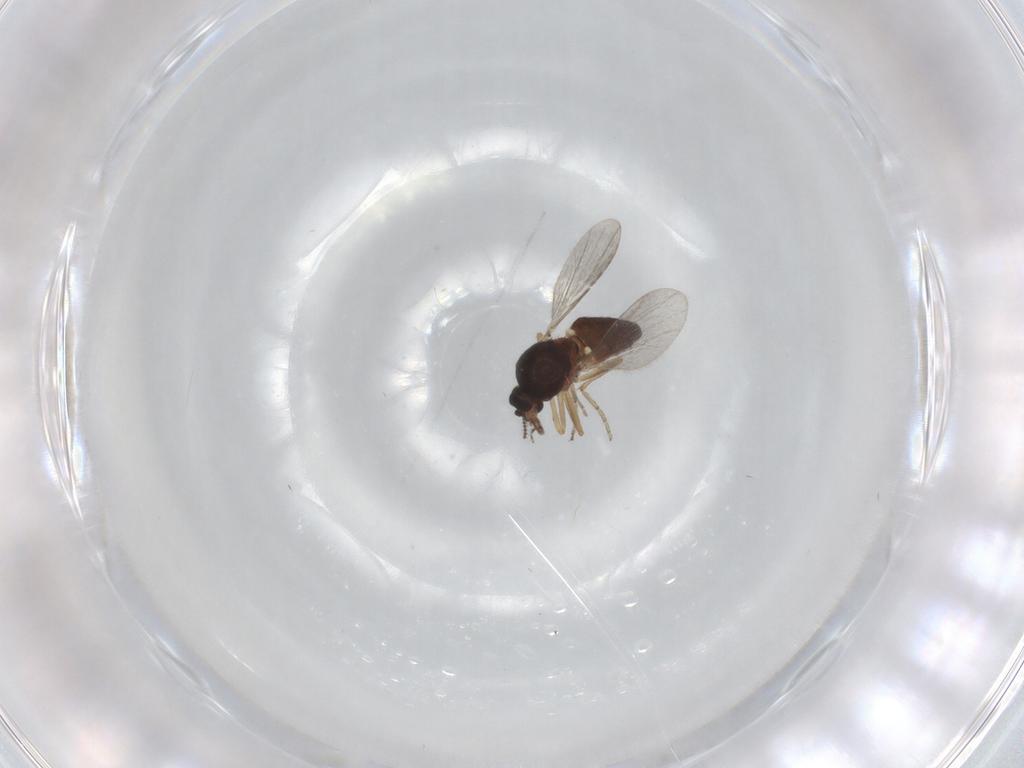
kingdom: Animalia
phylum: Arthropoda
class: Insecta
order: Diptera
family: Ceratopogonidae
